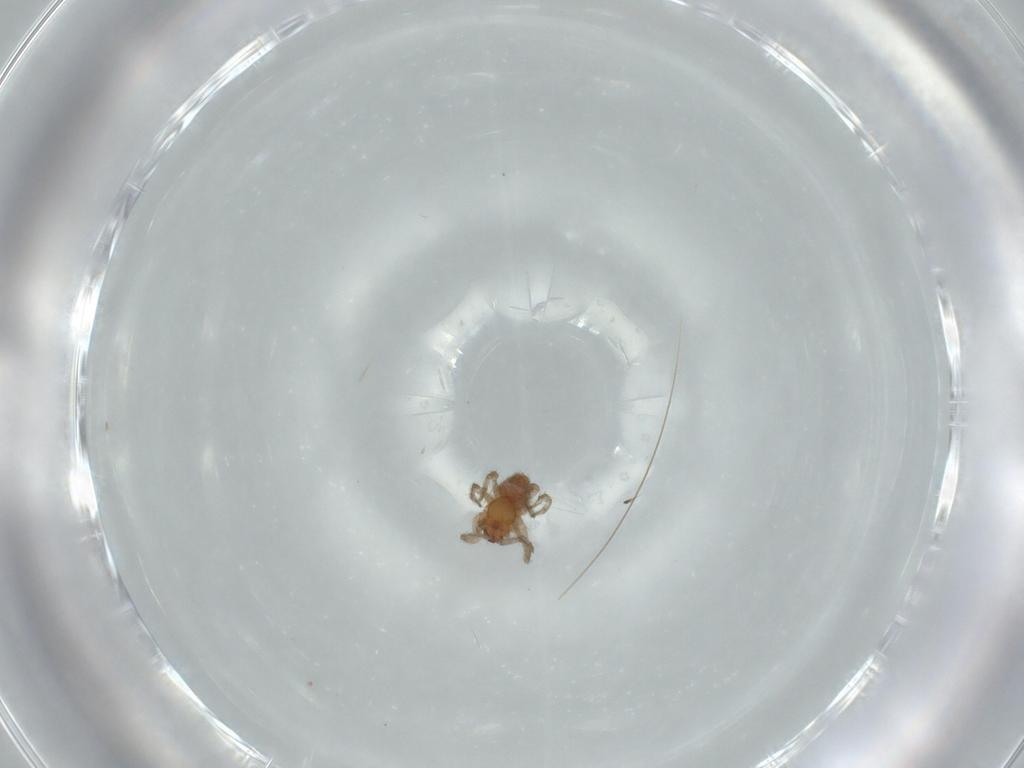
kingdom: Animalia
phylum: Arthropoda
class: Arachnida
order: Araneae
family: Dictynidae
